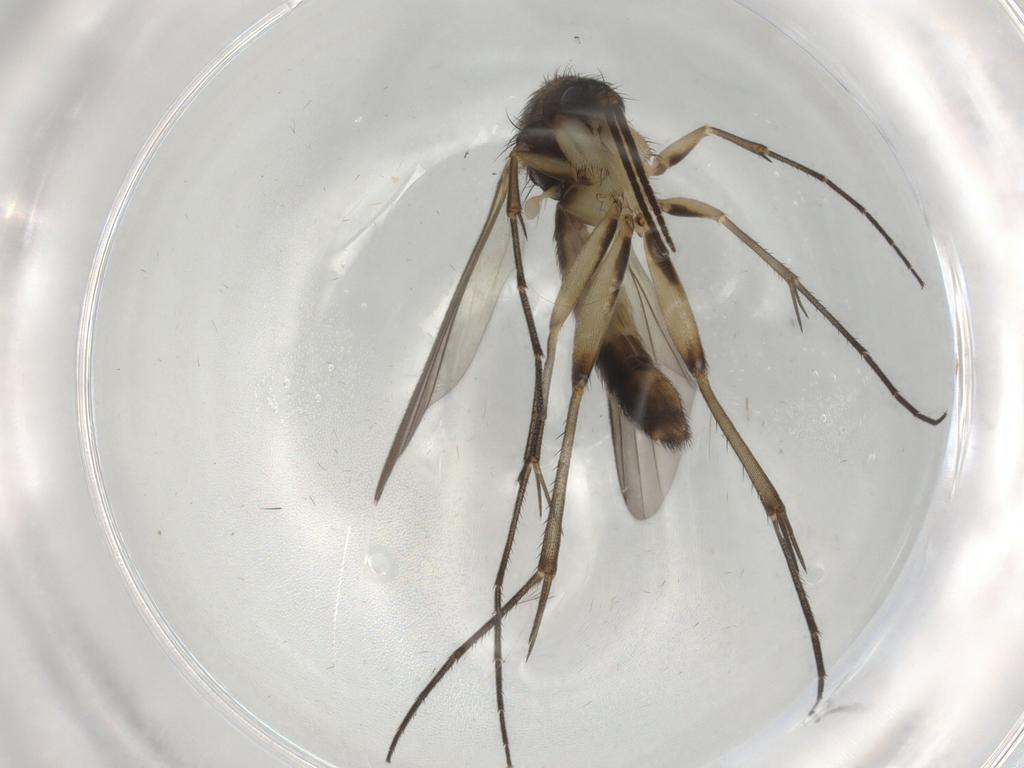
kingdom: Animalia
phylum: Arthropoda
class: Insecta
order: Diptera
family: Phoridae
